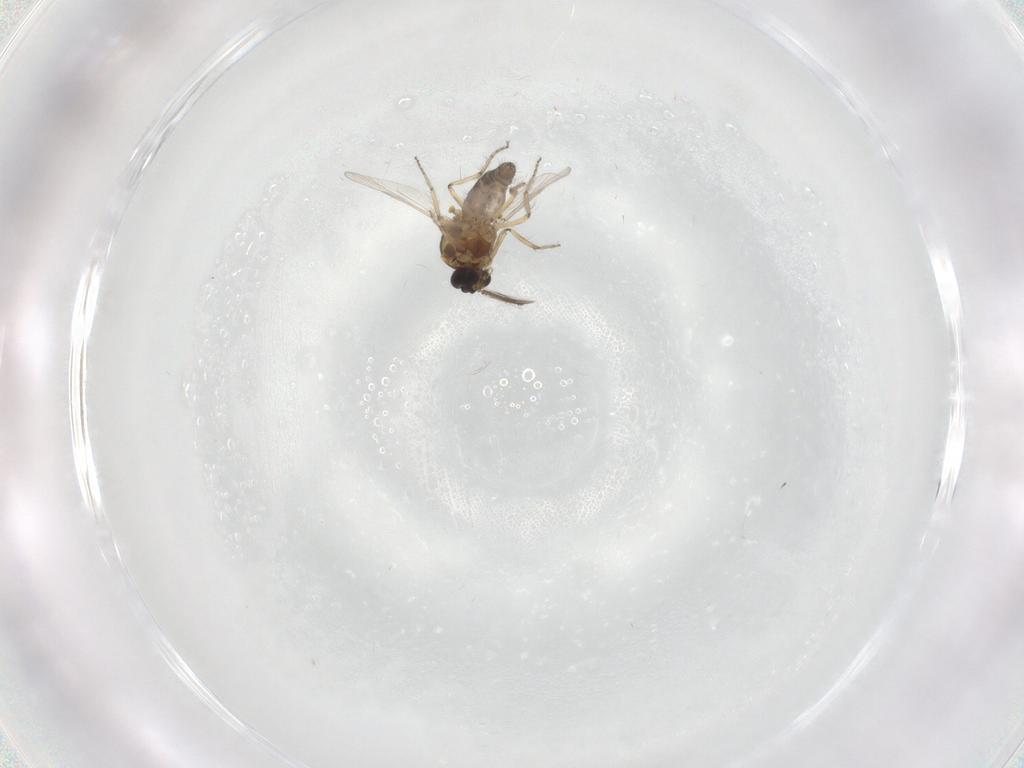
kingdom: Animalia
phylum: Arthropoda
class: Insecta
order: Diptera
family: Ceratopogonidae
